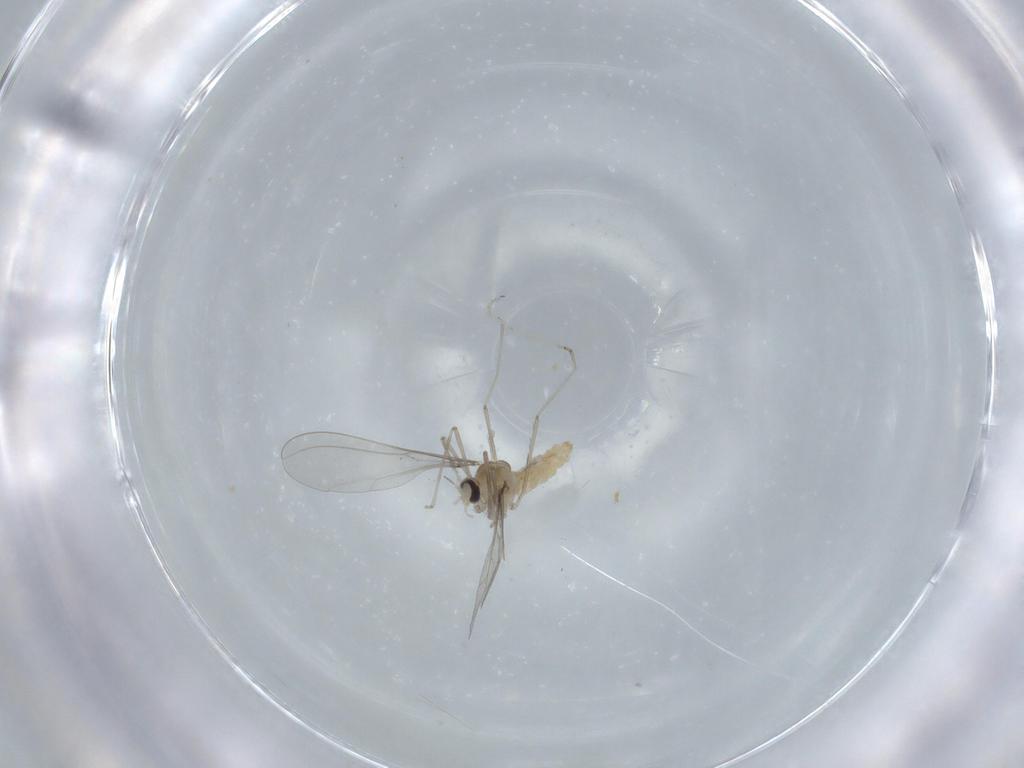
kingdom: Animalia
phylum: Arthropoda
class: Insecta
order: Diptera
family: Cecidomyiidae
